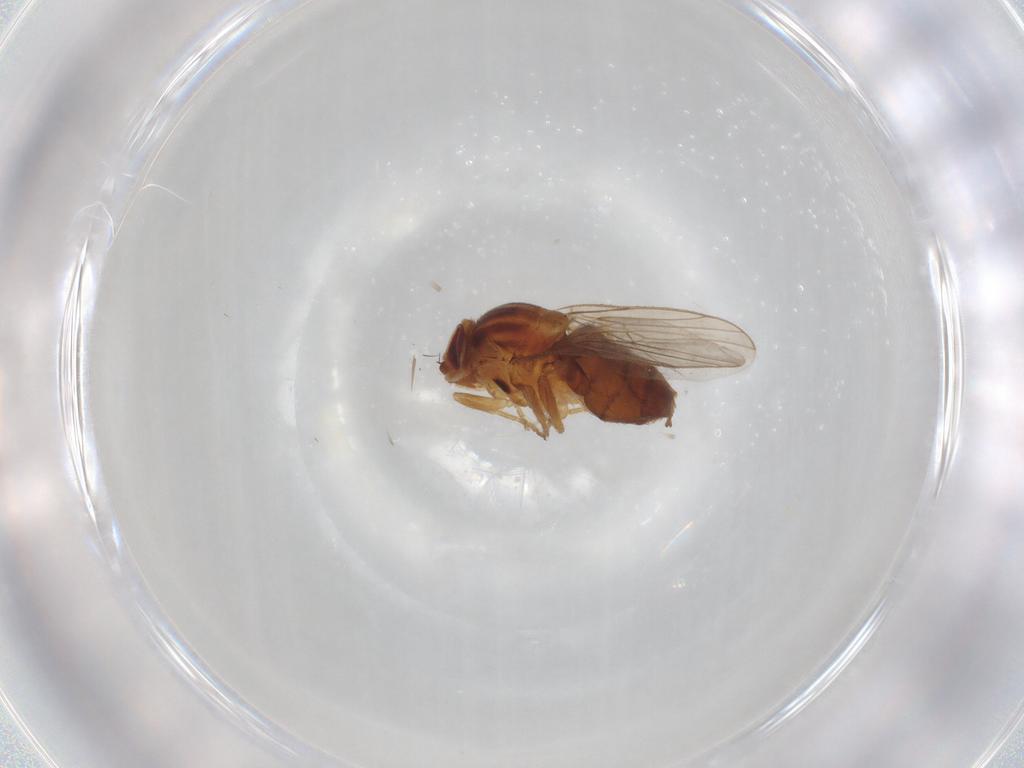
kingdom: Animalia
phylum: Arthropoda
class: Insecta
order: Diptera
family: Chloropidae
